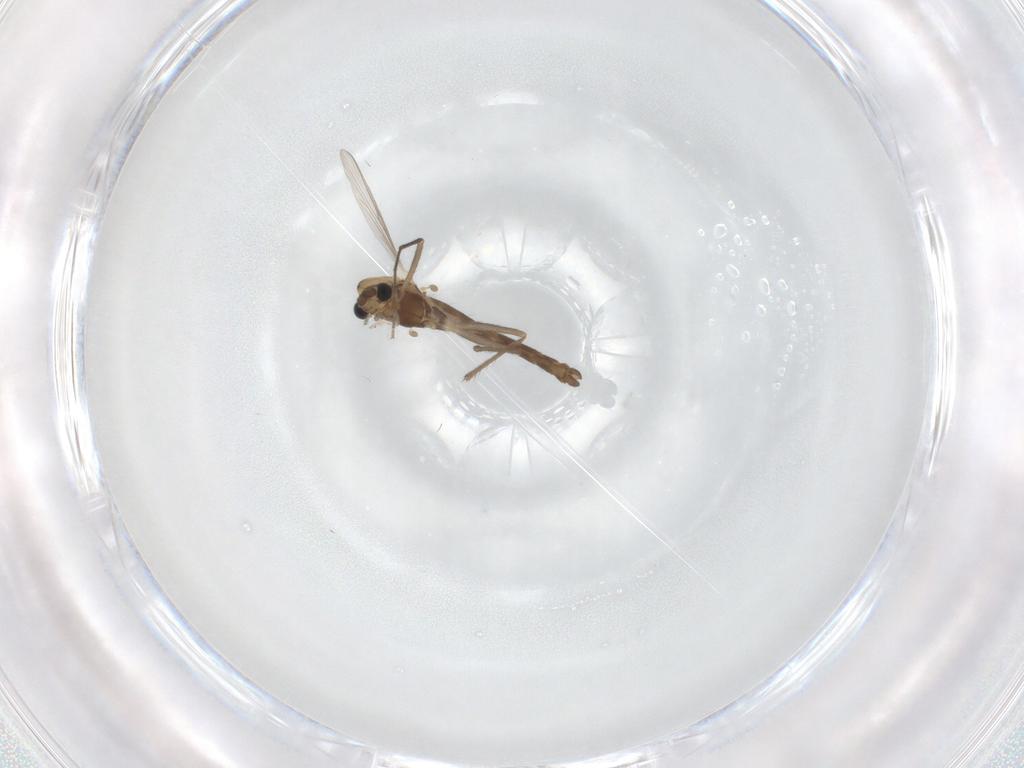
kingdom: Animalia
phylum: Arthropoda
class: Insecta
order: Diptera
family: Chironomidae
